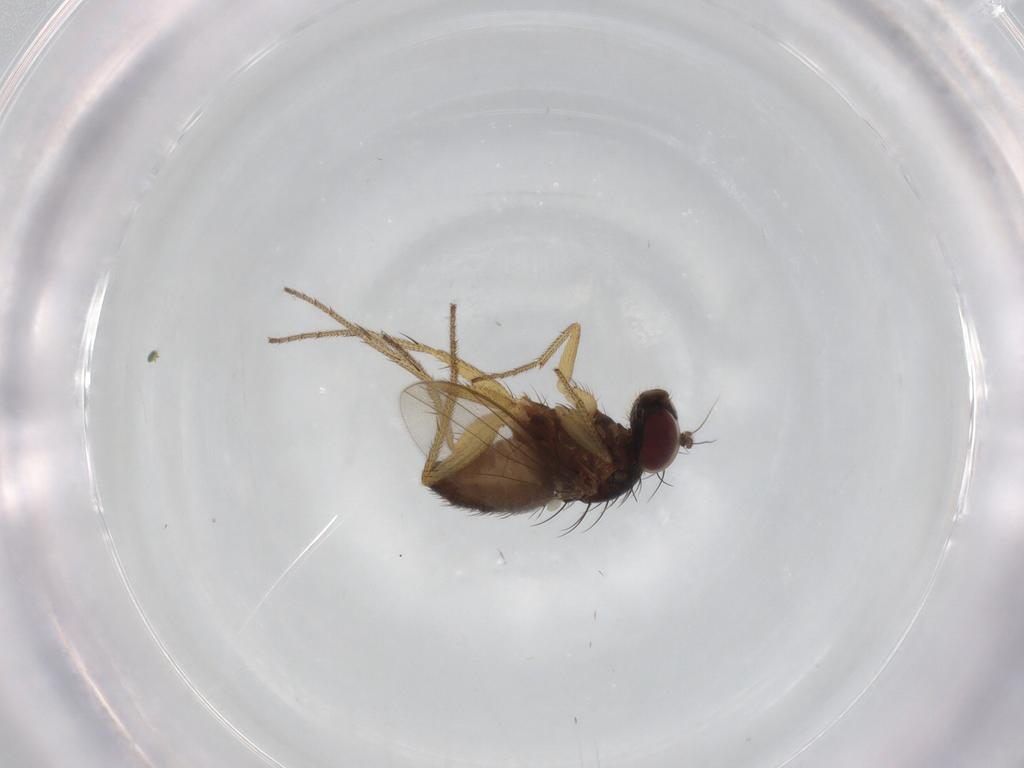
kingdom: Animalia
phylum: Arthropoda
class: Insecta
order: Diptera
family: Dolichopodidae
